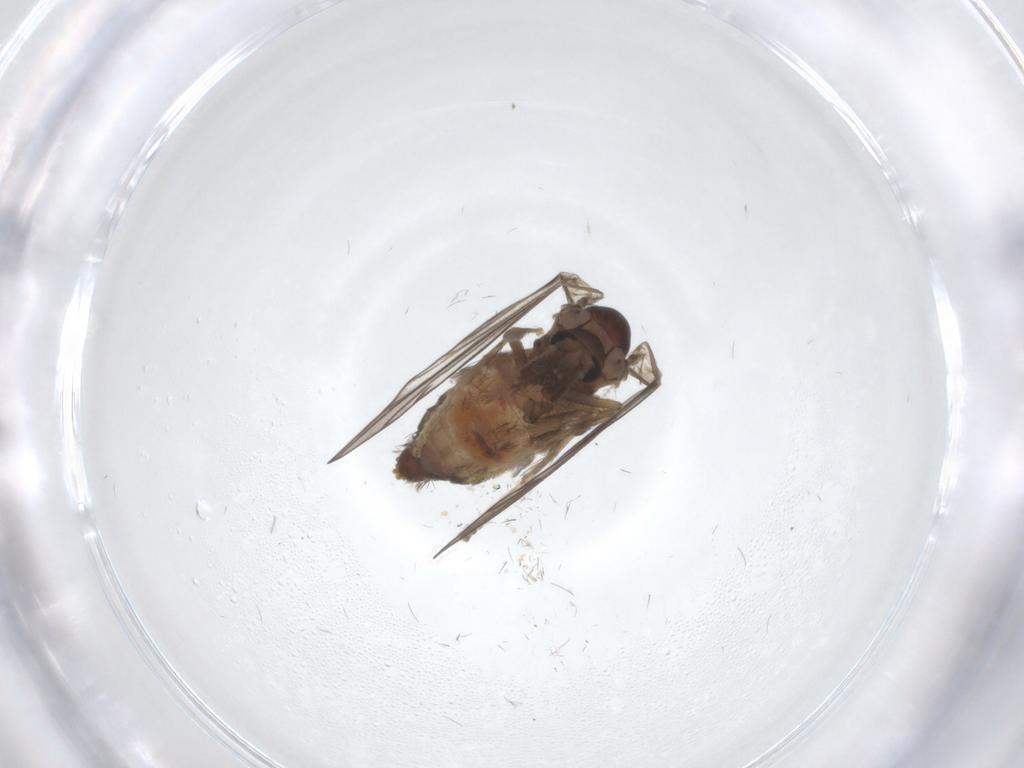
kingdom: Animalia
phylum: Arthropoda
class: Insecta
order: Diptera
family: Psychodidae
